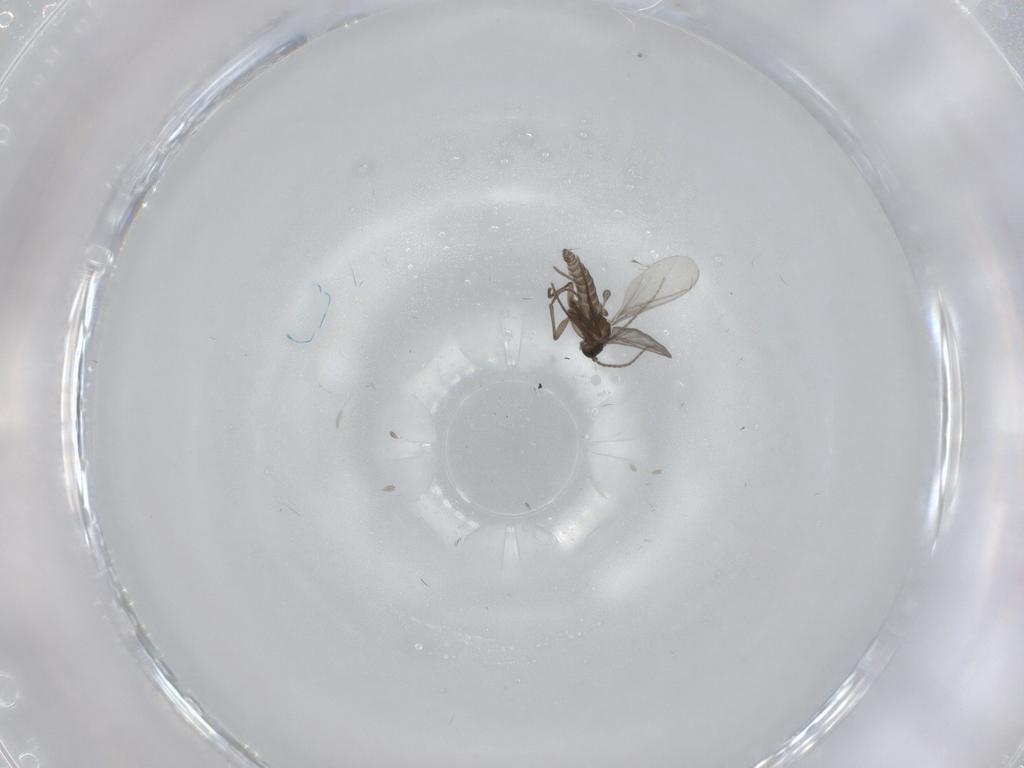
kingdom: Animalia
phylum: Arthropoda
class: Insecta
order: Diptera
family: Sciaridae
